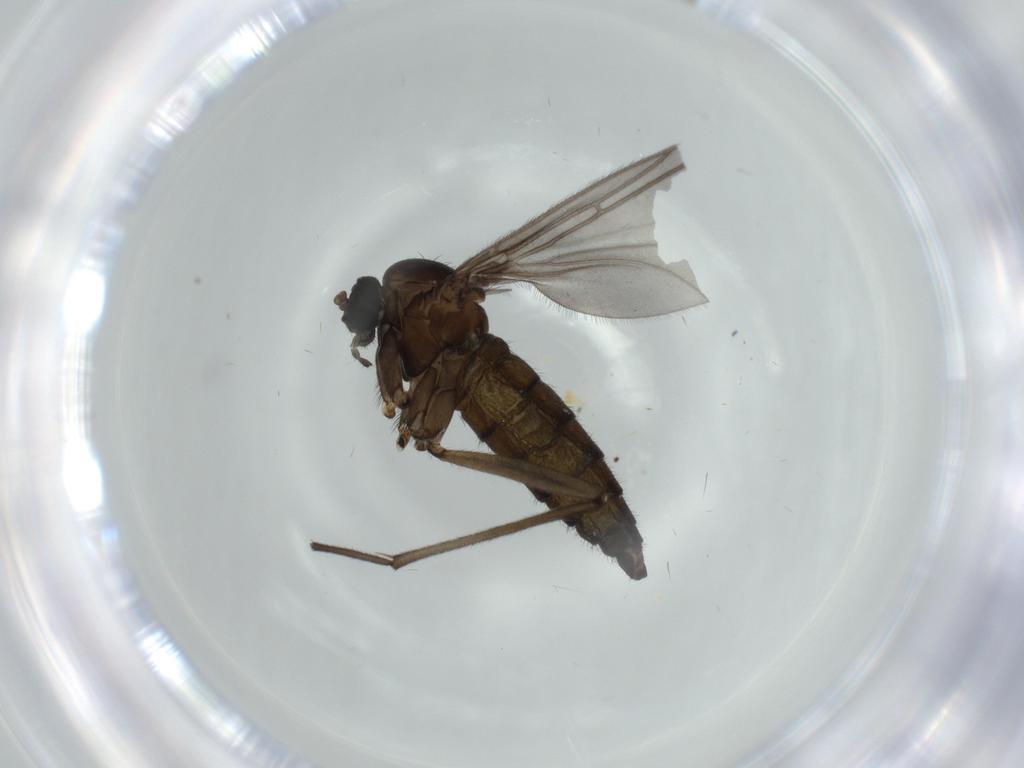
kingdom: Animalia
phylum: Arthropoda
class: Insecta
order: Diptera
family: Sciaridae
